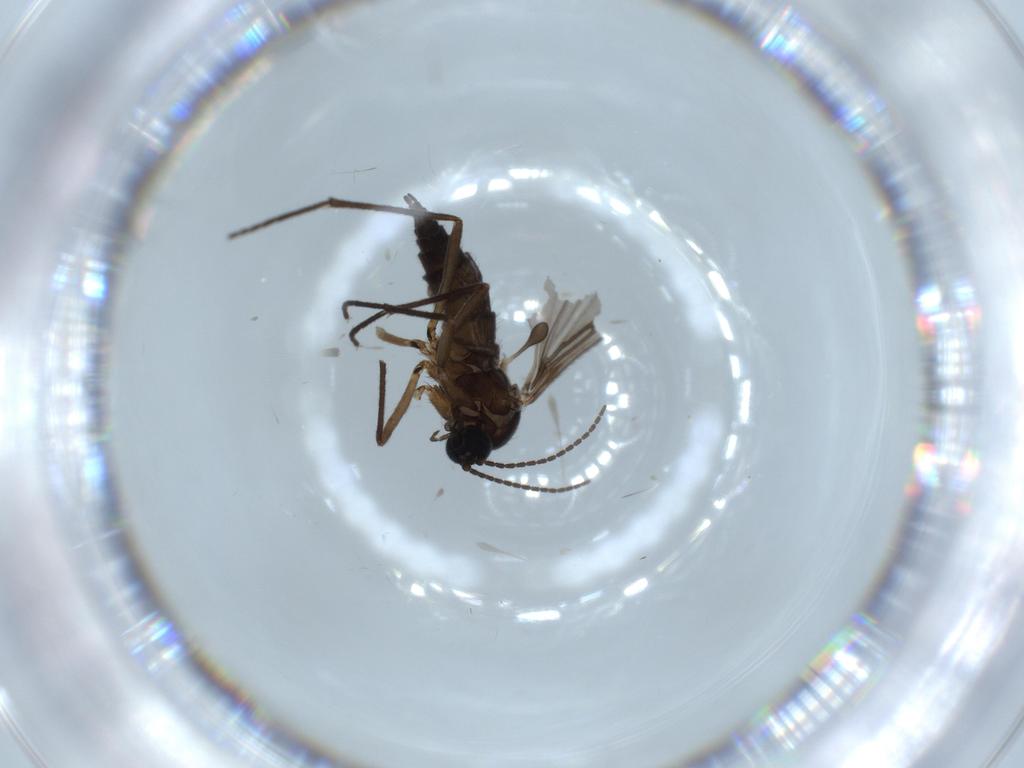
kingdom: Animalia
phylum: Arthropoda
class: Insecta
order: Diptera
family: Sciaridae
